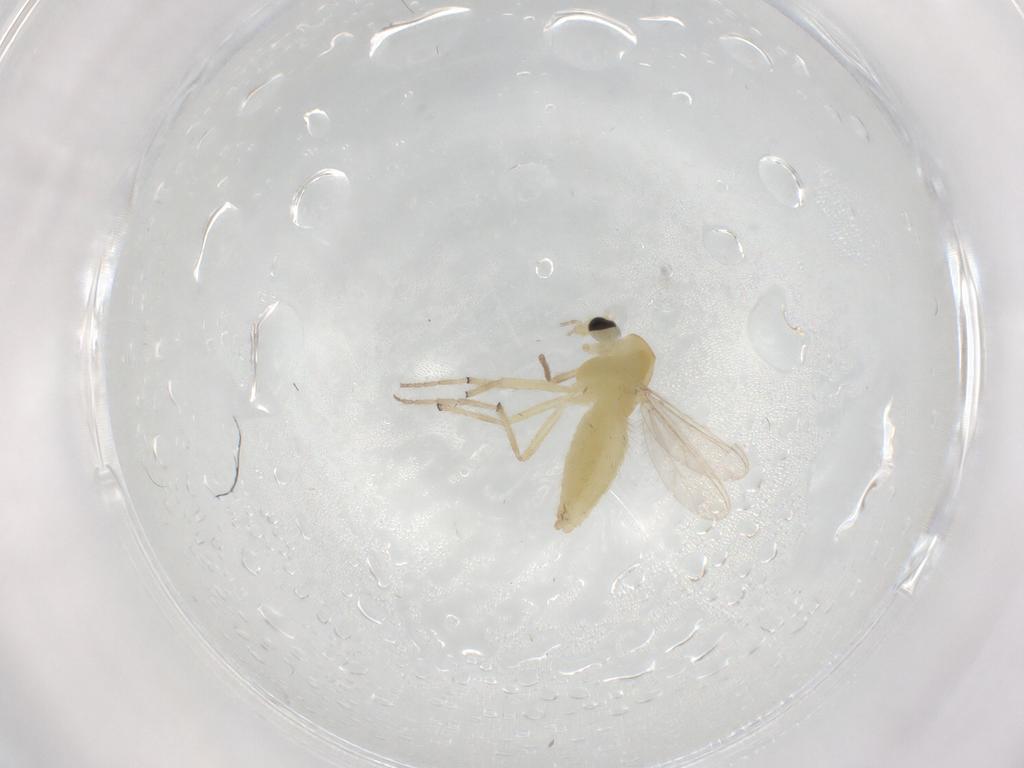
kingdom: Animalia
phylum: Arthropoda
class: Insecta
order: Diptera
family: Chironomidae
